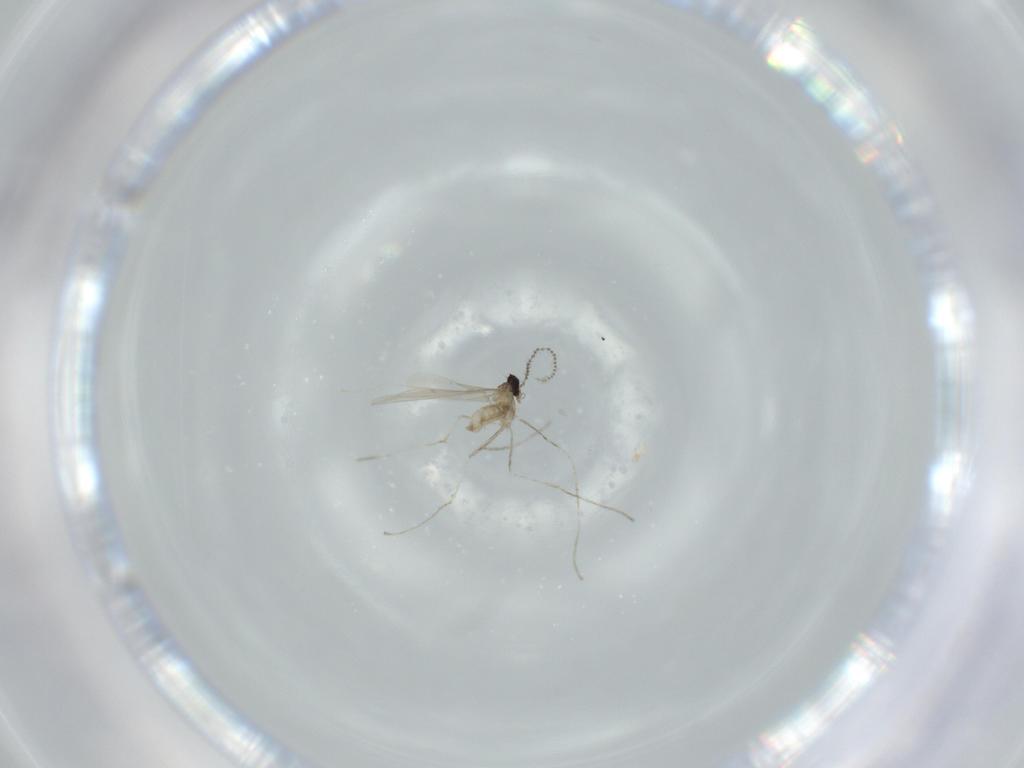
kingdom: Animalia
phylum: Arthropoda
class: Insecta
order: Diptera
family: Cecidomyiidae
